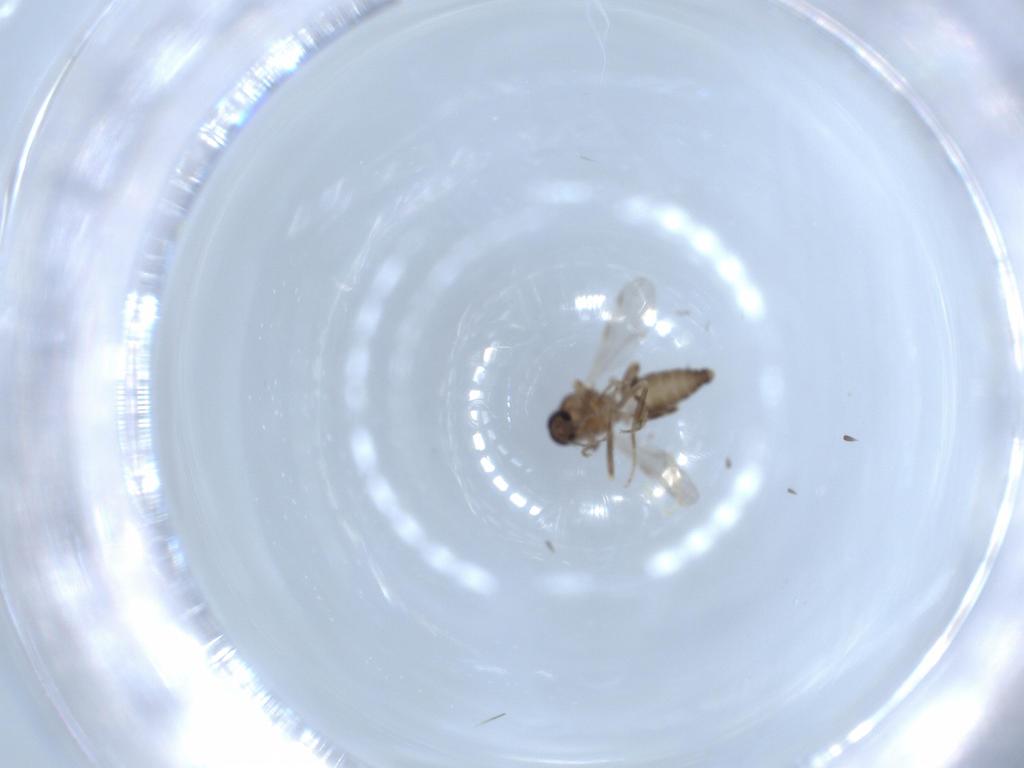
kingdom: Animalia
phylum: Arthropoda
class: Insecta
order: Diptera
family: Ceratopogonidae
